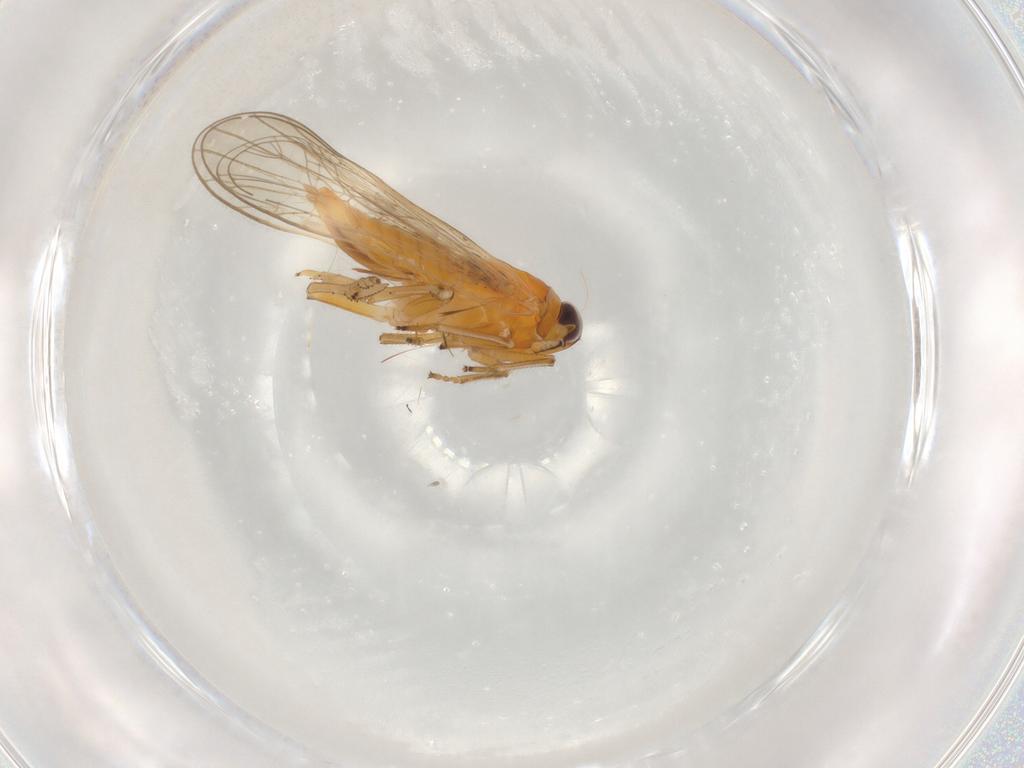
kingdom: Animalia
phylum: Arthropoda
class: Insecta
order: Hemiptera
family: Delphacidae
